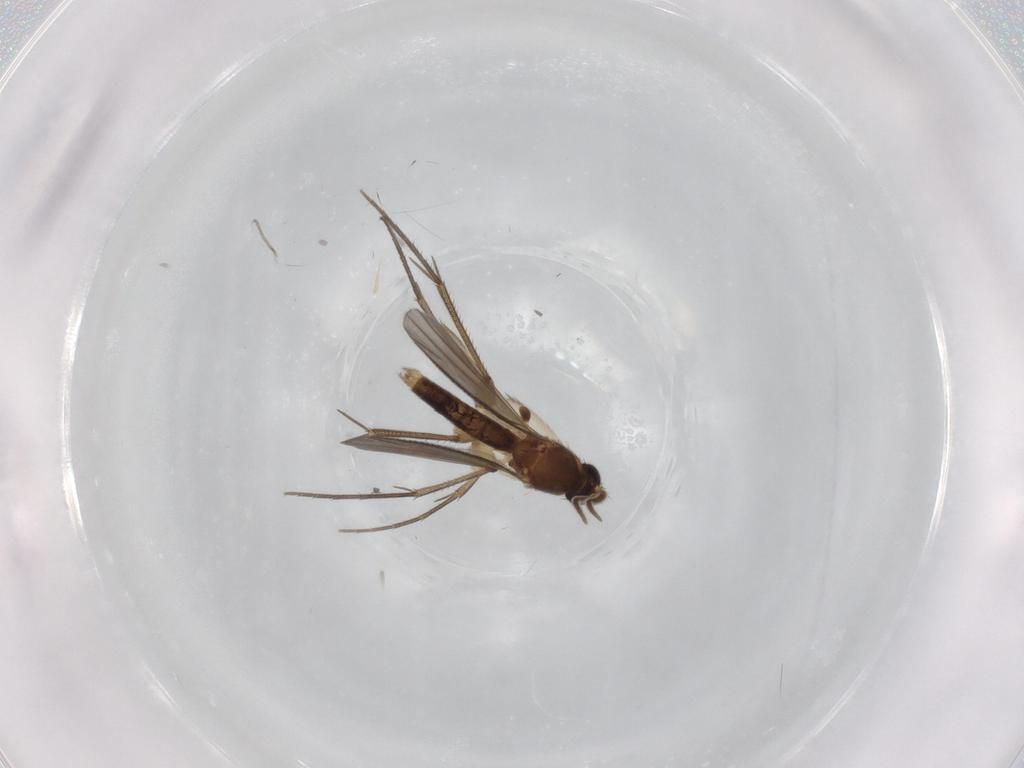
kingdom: Animalia
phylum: Arthropoda
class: Insecta
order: Diptera
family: Mycetophilidae
